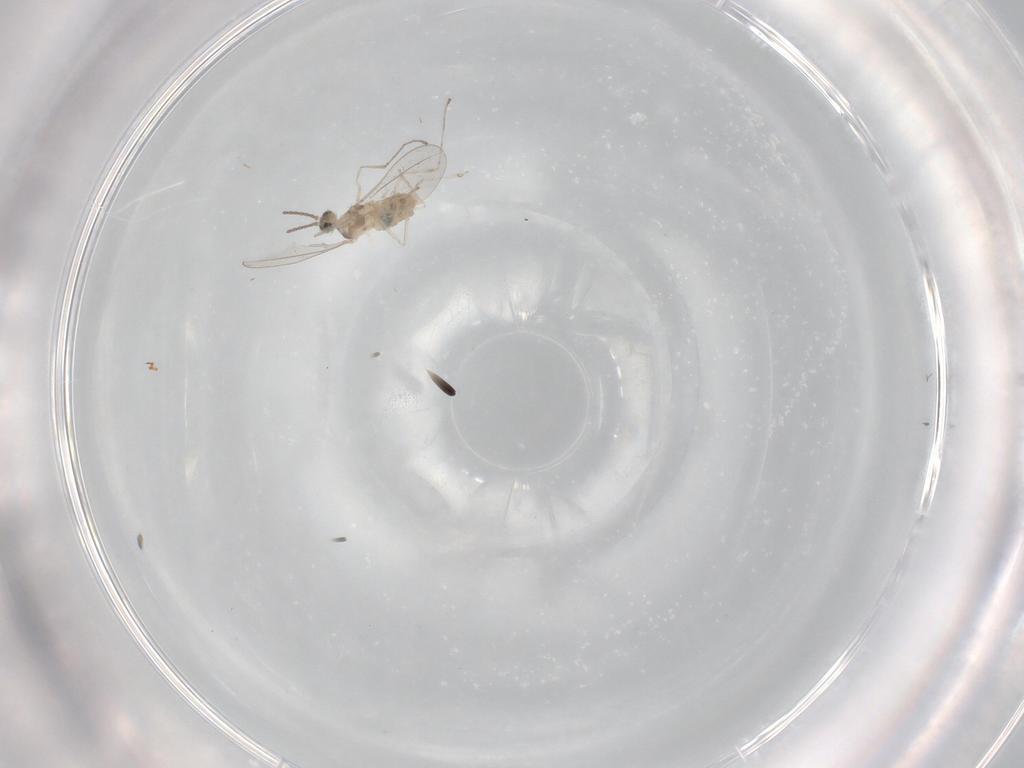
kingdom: Animalia
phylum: Arthropoda
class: Insecta
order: Diptera
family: Cecidomyiidae
